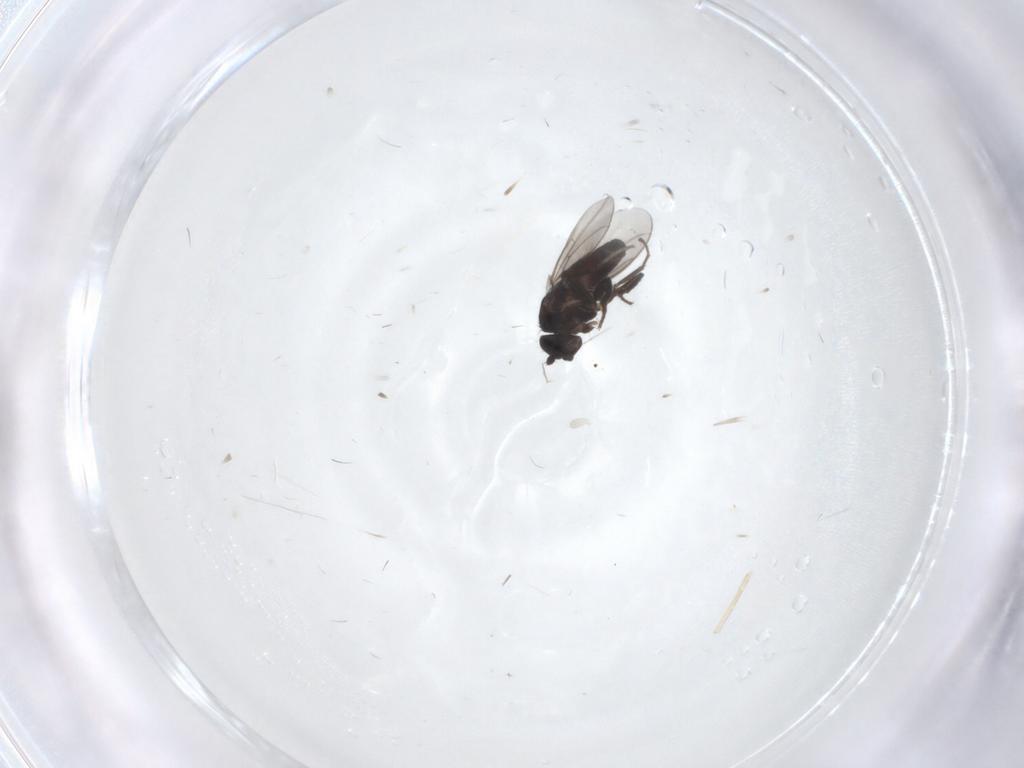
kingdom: Animalia
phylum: Arthropoda
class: Insecta
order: Diptera
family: Sphaeroceridae
